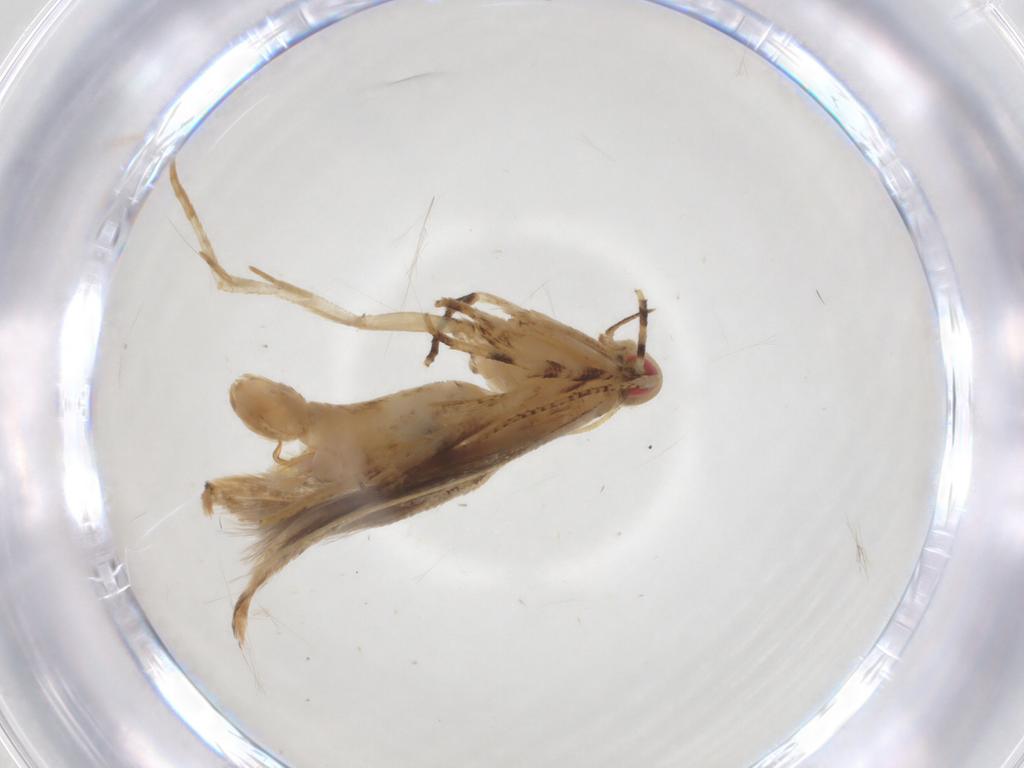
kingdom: Animalia
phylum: Arthropoda
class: Insecta
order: Lepidoptera
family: Cosmopterigidae
